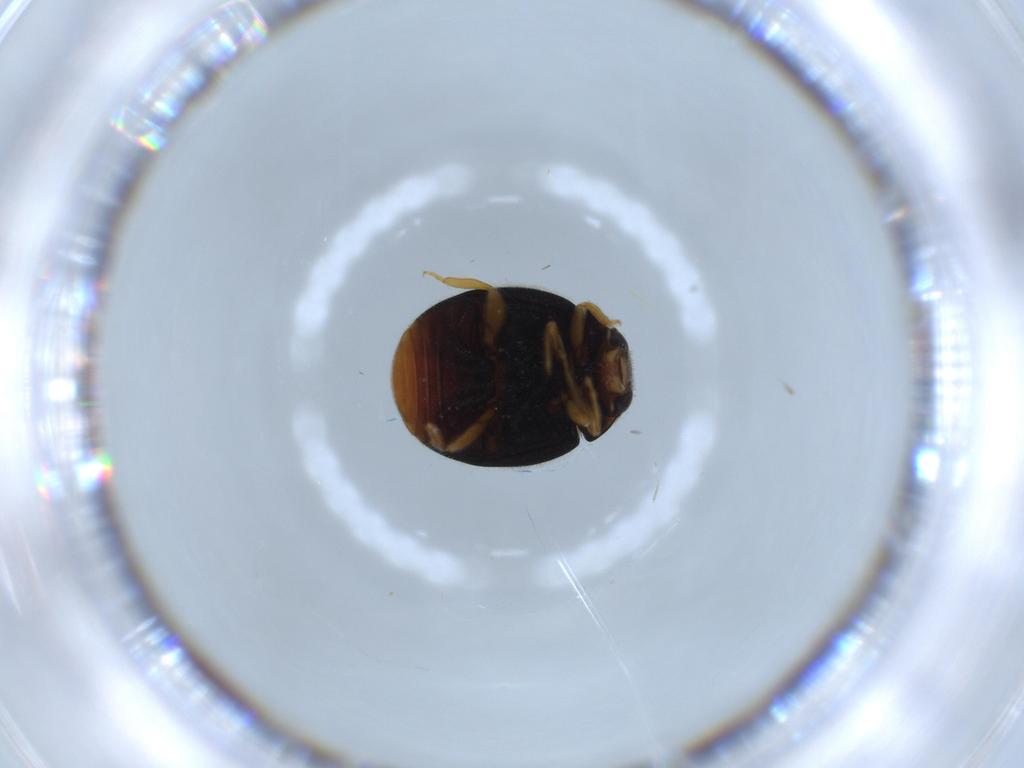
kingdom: Animalia
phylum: Arthropoda
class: Insecta
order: Coleoptera
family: Coccinellidae
